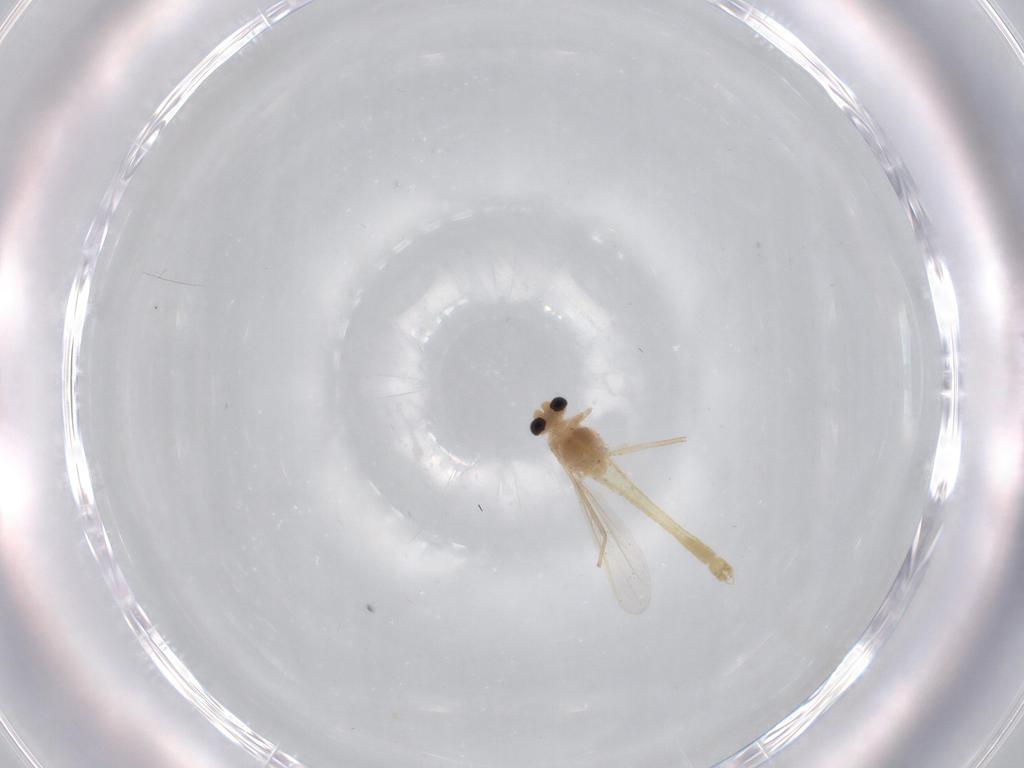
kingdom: Animalia
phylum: Arthropoda
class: Insecta
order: Diptera
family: Chironomidae
